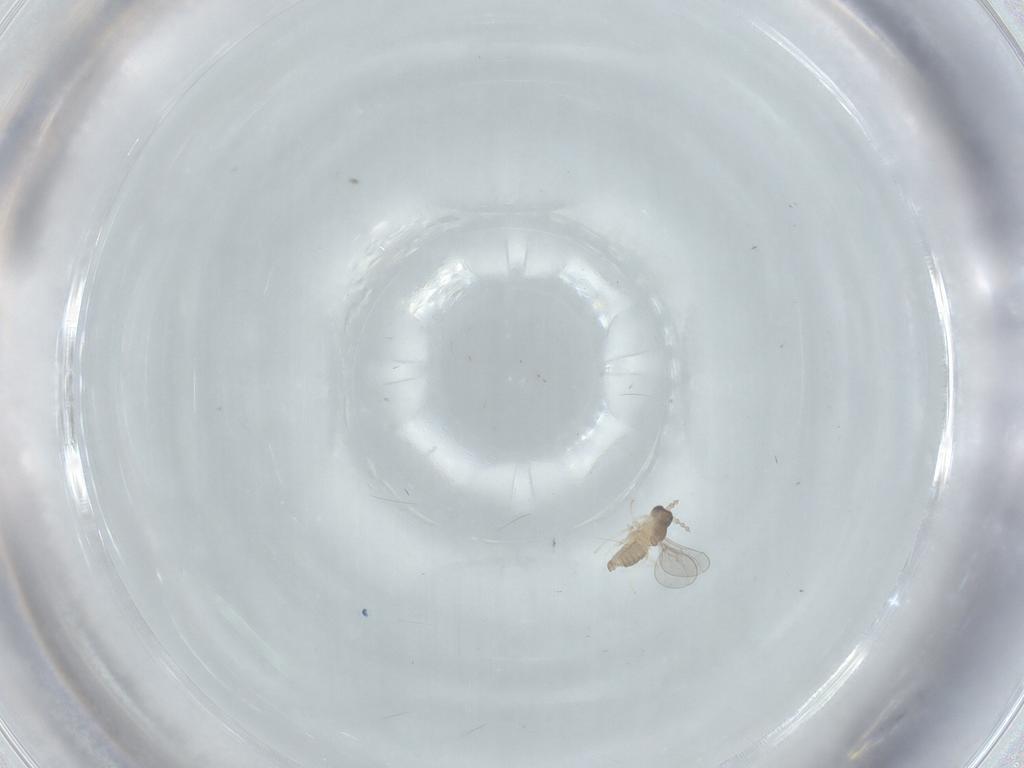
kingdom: Animalia
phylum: Arthropoda
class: Insecta
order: Diptera
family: Cecidomyiidae
